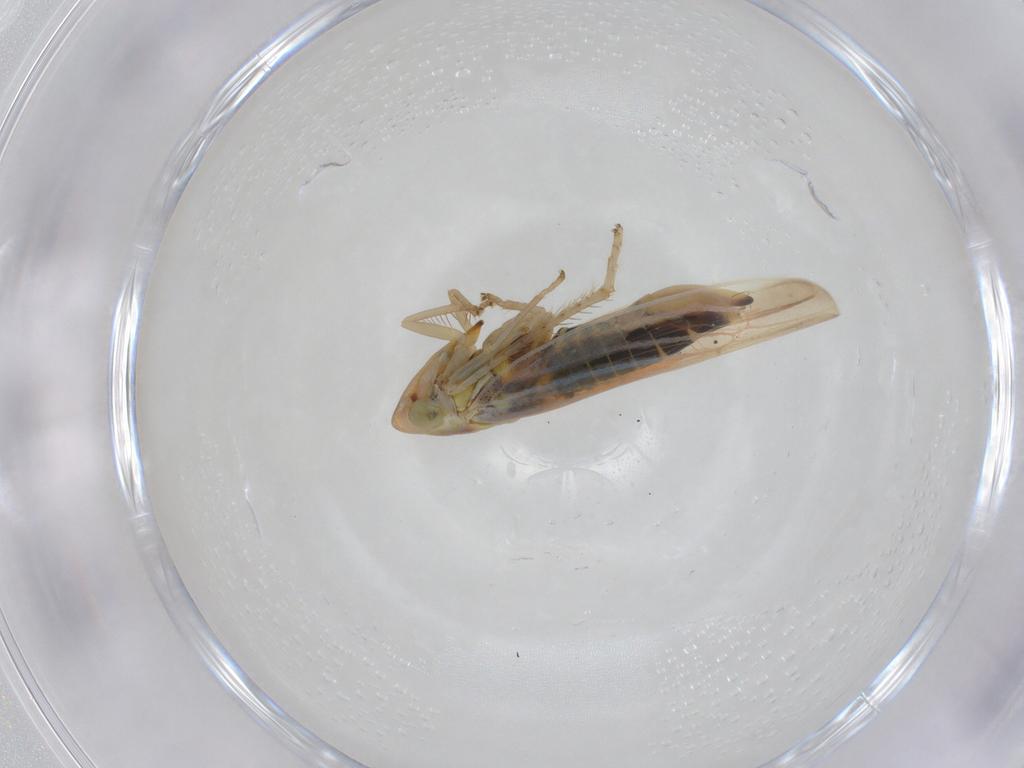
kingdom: Animalia
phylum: Arthropoda
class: Insecta
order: Hemiptera
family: Cicadellidae
